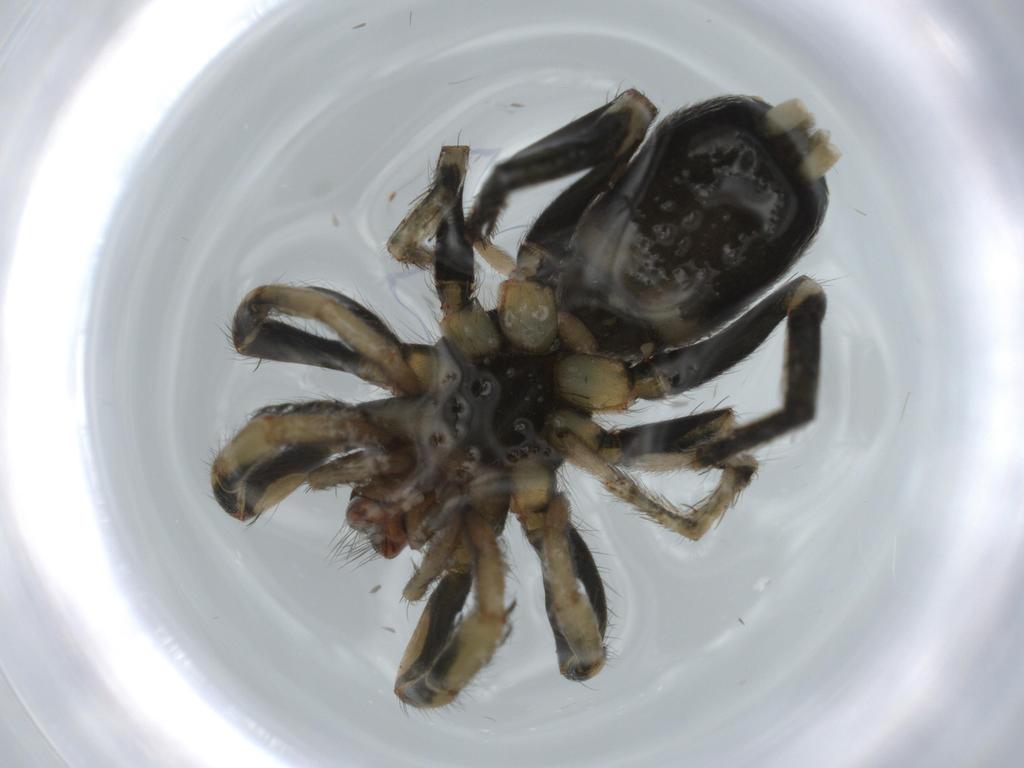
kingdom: Animalia
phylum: Arthropoda
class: Arachnida
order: Araneae
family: Gnaphosidae
